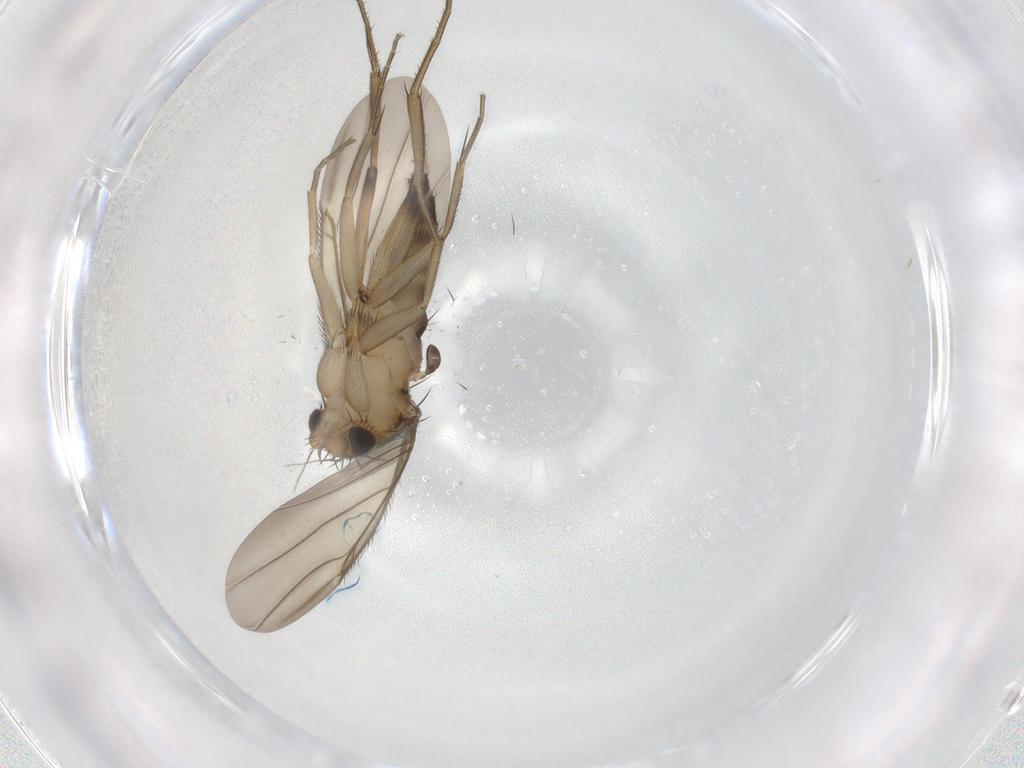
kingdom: Animalia
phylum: Arthropoda
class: Insecta
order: Diptera
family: Phoridae
